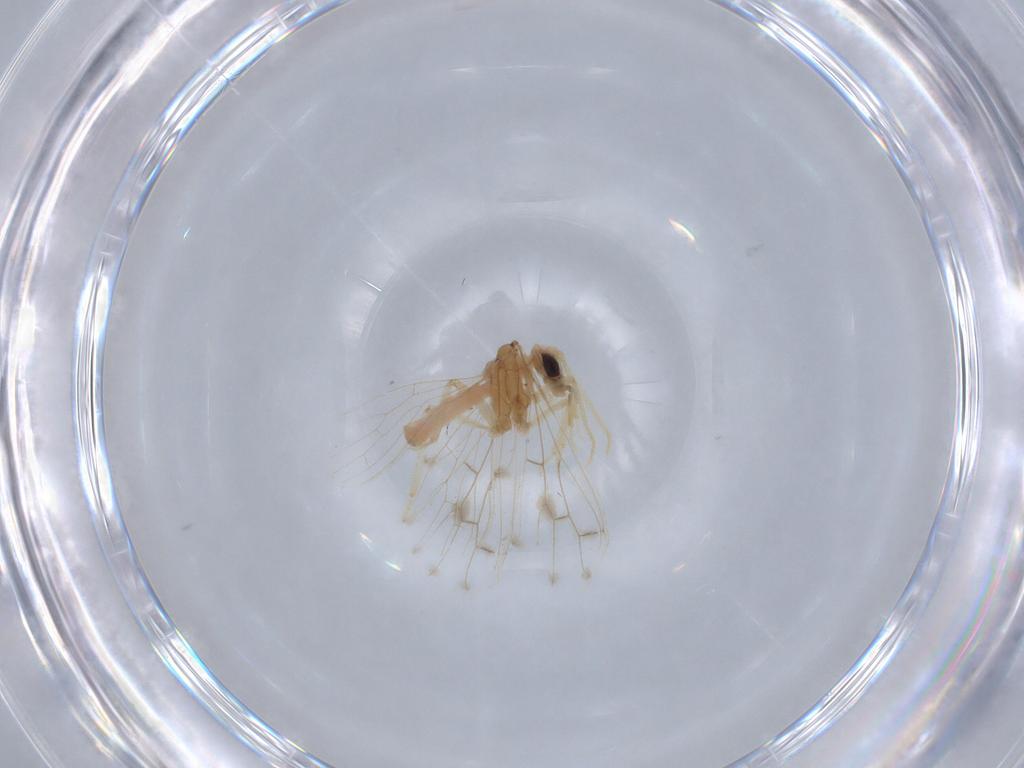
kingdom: Animalia
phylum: Arthropoda
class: Insecta
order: Neuroptera
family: Coniopterygidae
